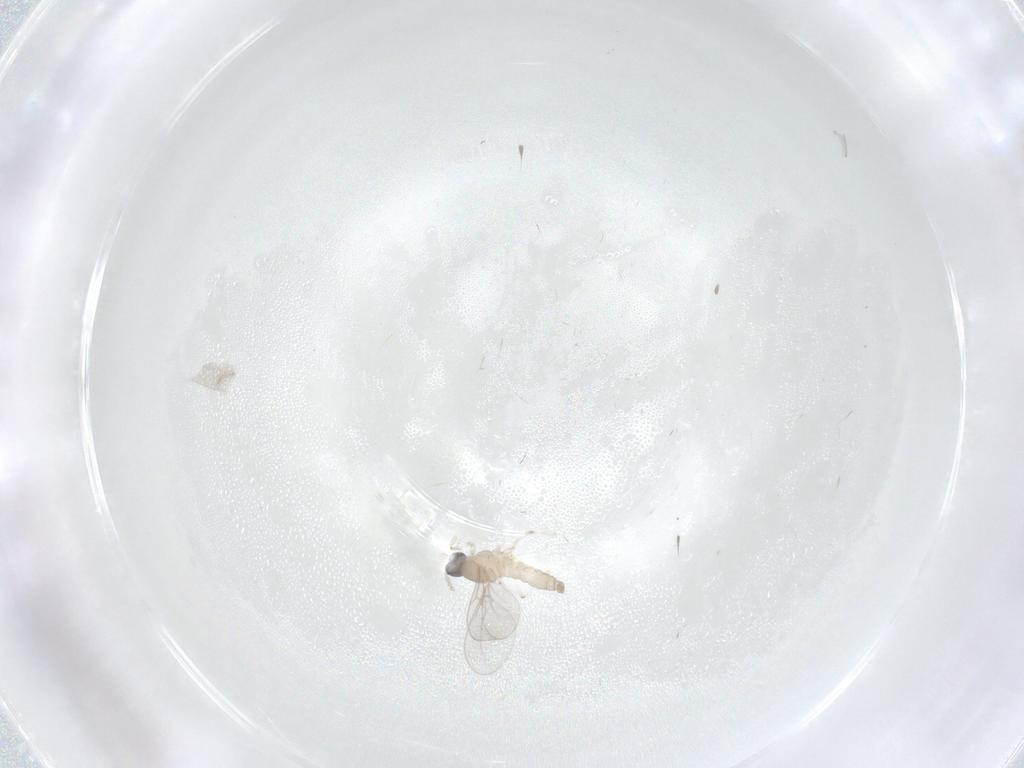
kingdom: Animalia
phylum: Arthropoda
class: Insecta
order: Diptera
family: Cecidomyiidae
